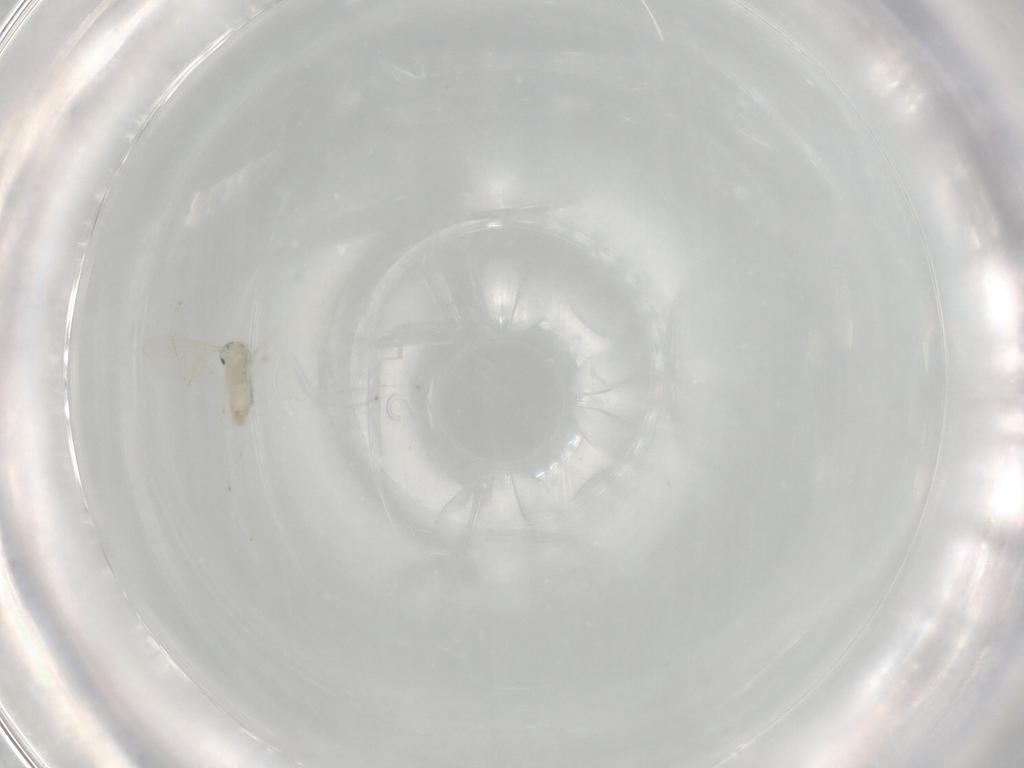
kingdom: Animalia
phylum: Arthropoda
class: Insecta
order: Diptera
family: Cecidomyiidae
